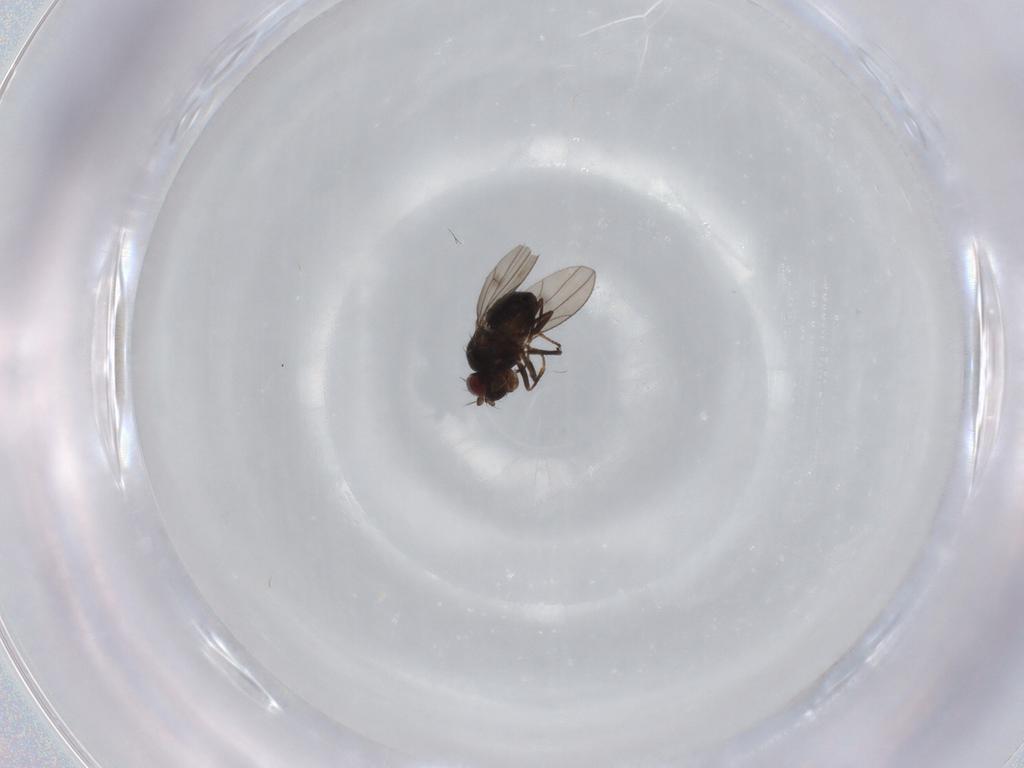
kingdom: Animalia
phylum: Arthropoda
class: Insecta
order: Diptera
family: Ephydridae
